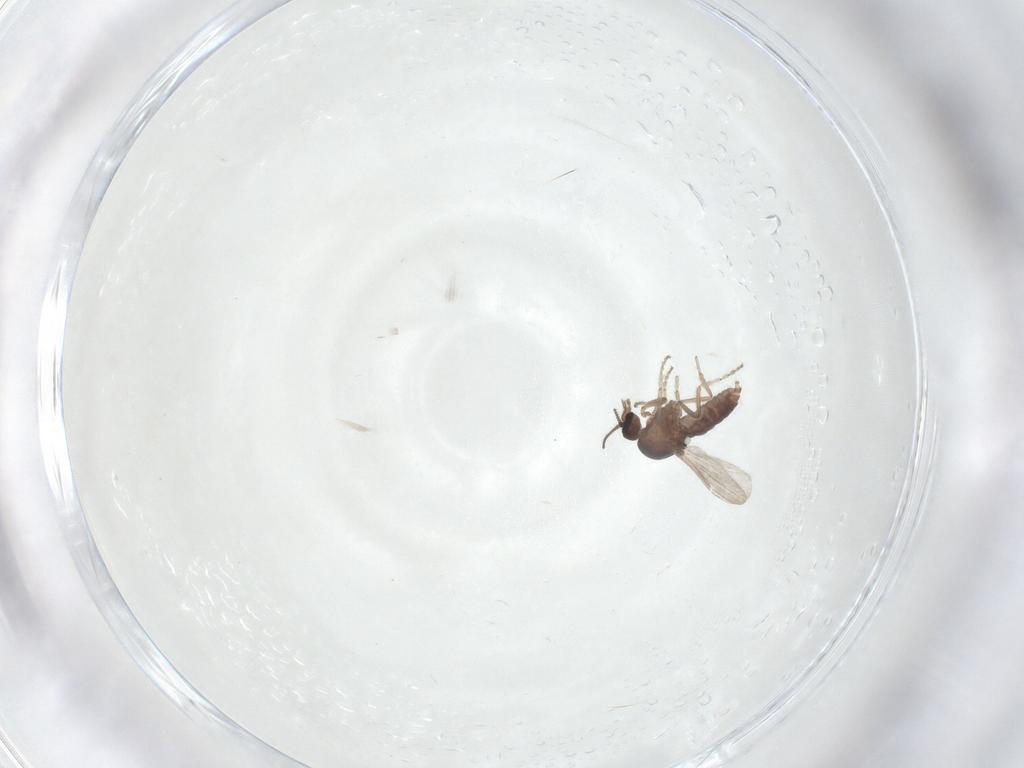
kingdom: Animalia
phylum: Arthropoda
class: Insecta
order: Diptera
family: Ceratopogonidae
